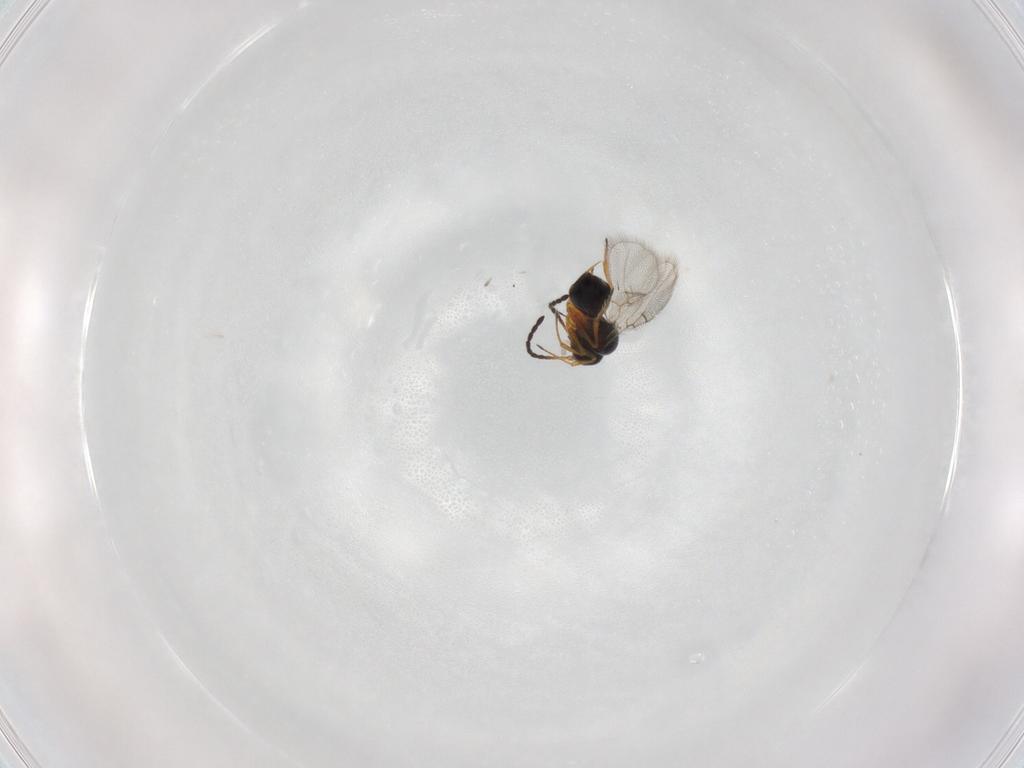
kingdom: Animalia
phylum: Arthropoda
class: Insecta
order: Hymenoptera
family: Figitidae
